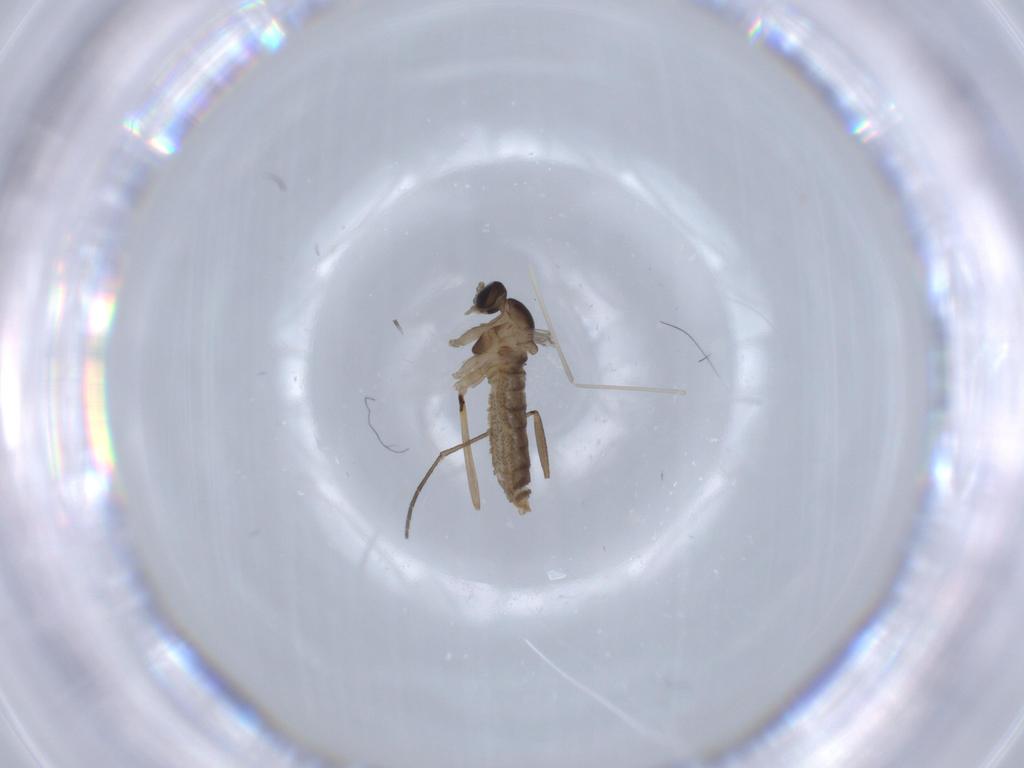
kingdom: Animalia
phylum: Arthropoda
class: Insecta
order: Diptera
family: Cecidomyiidae
